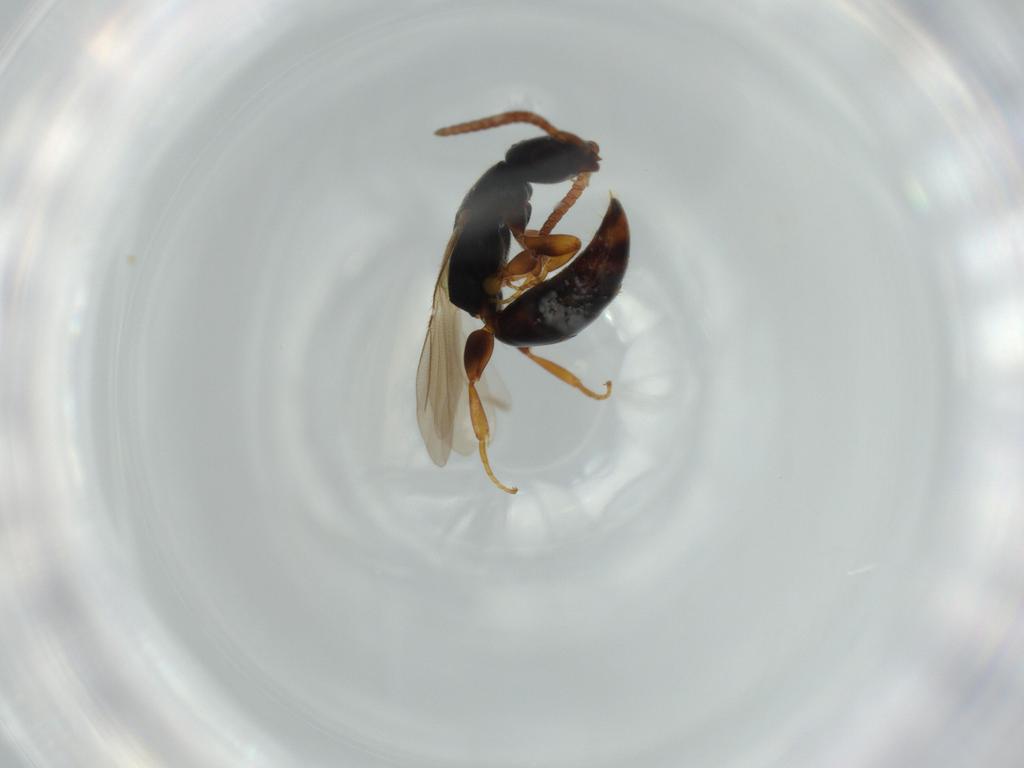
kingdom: Animalia
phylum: Arthropoda
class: Insecta
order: Hymenoptera
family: Bethylidae
